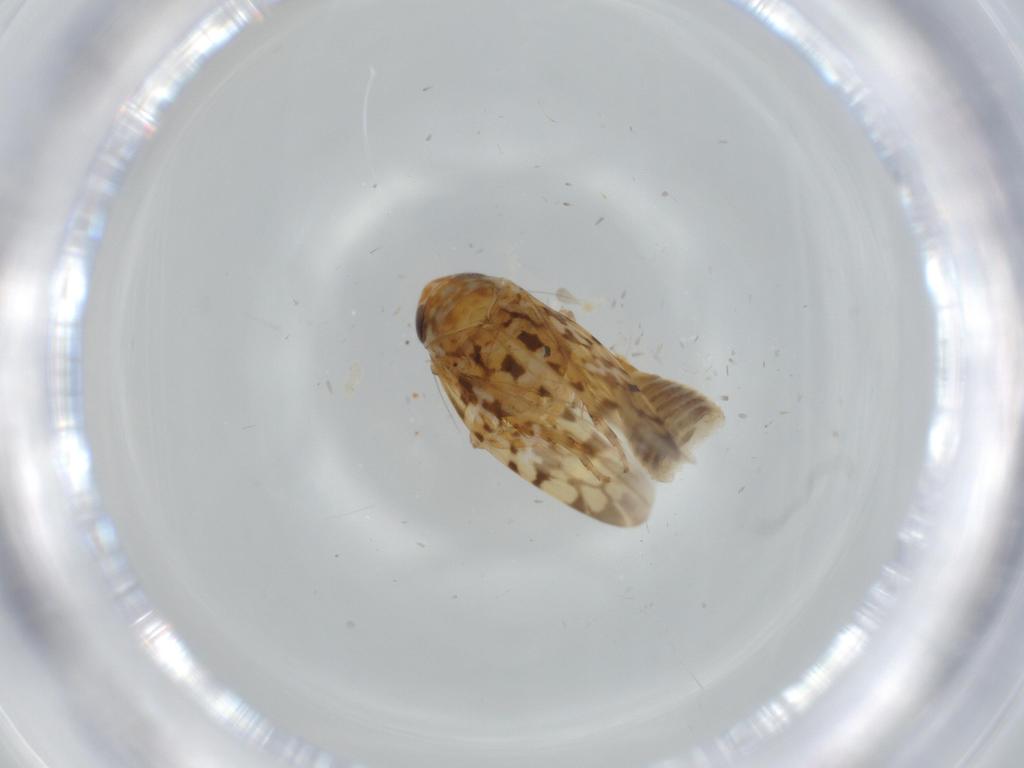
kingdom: Animalia
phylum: Arthropoda
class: Insecta
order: Hemiptera
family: Cicadellidae
